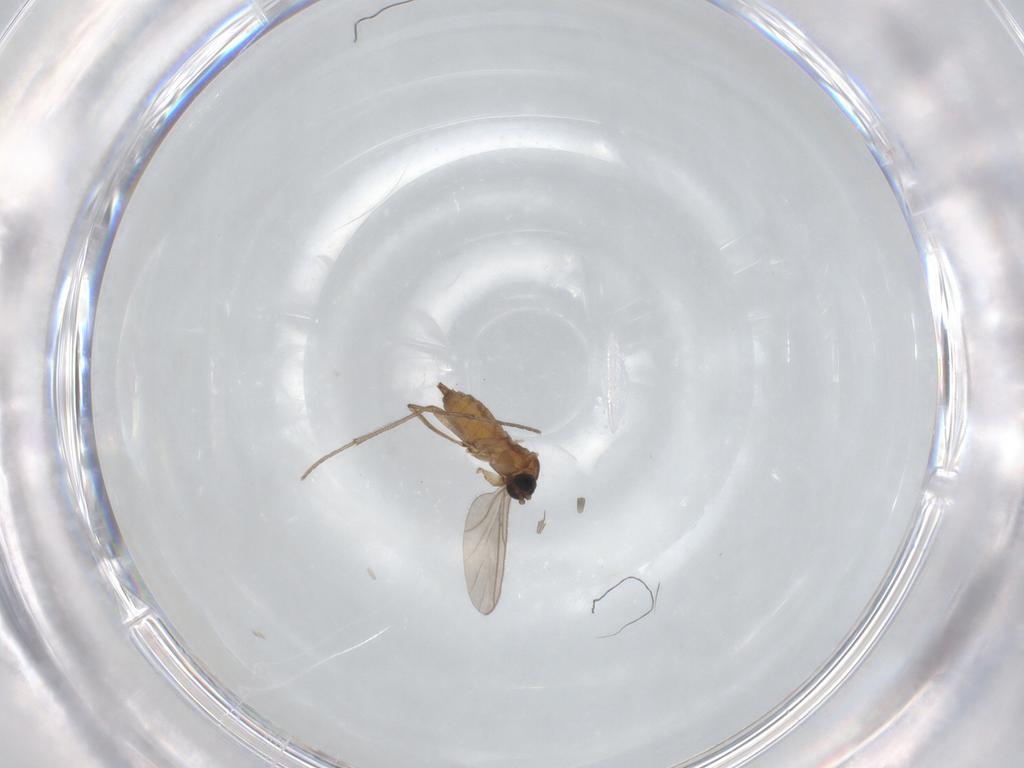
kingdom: Animalia
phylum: Arthropoda
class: Insecta
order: Diptera
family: Sciaridae
